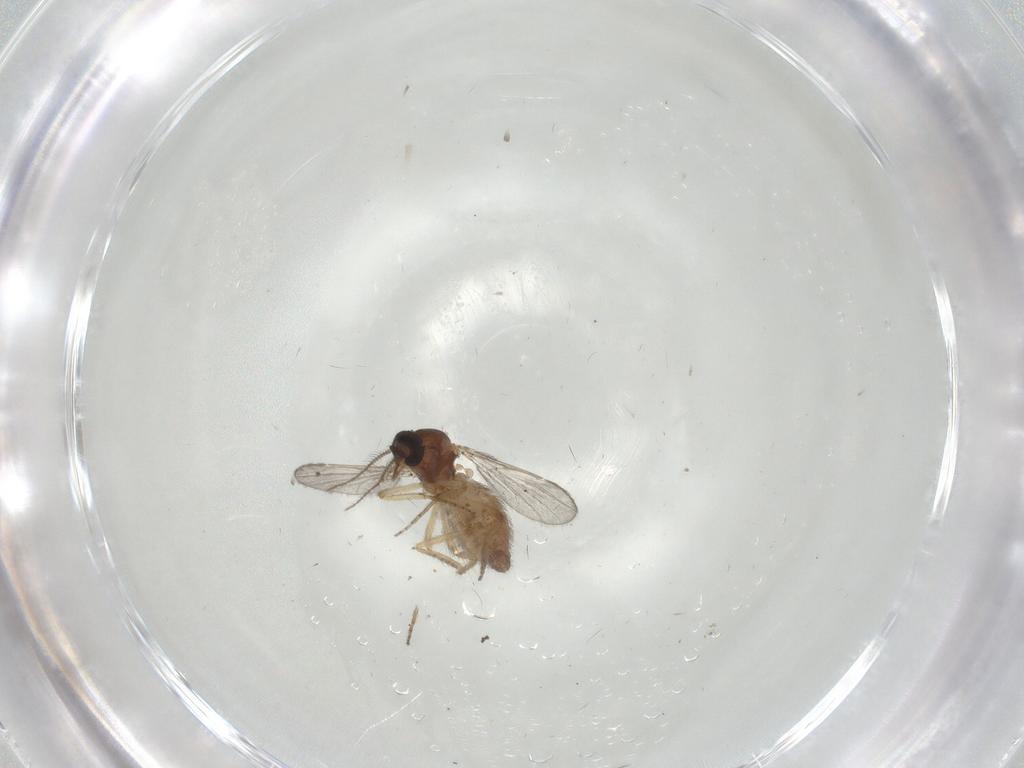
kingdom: Animalia
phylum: Arthropoda
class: Insecta
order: Diptera
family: Ceratopogonidae
